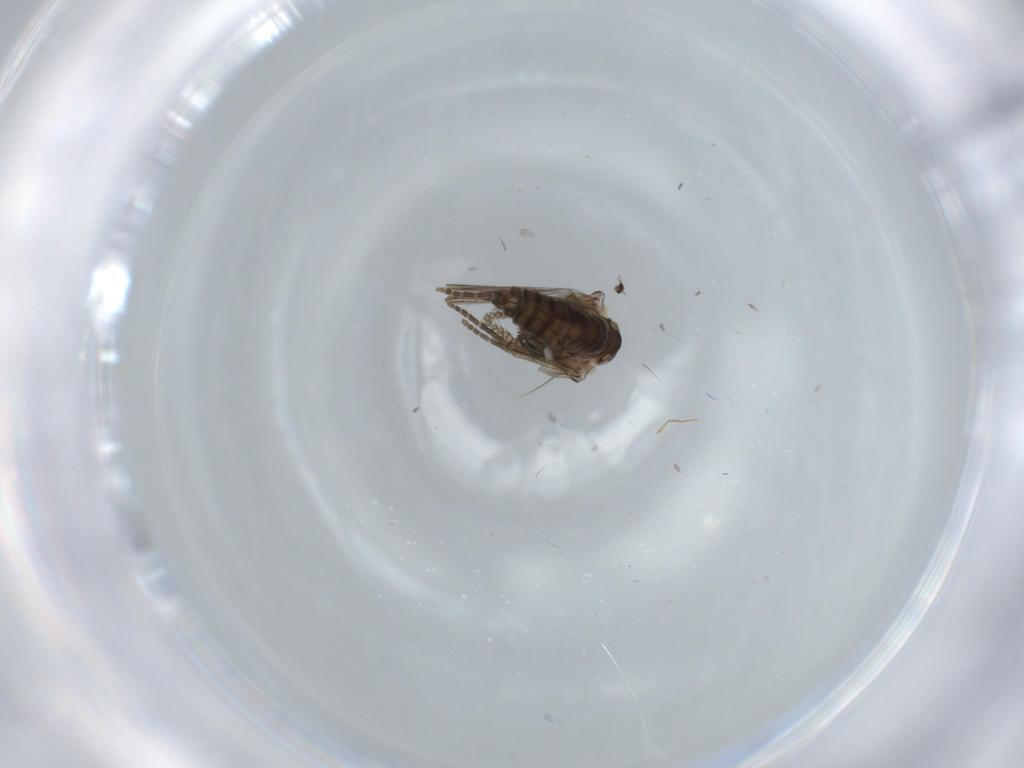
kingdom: Animalia
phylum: Arthropoda
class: Insecta
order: Diptera
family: Psychodidae
